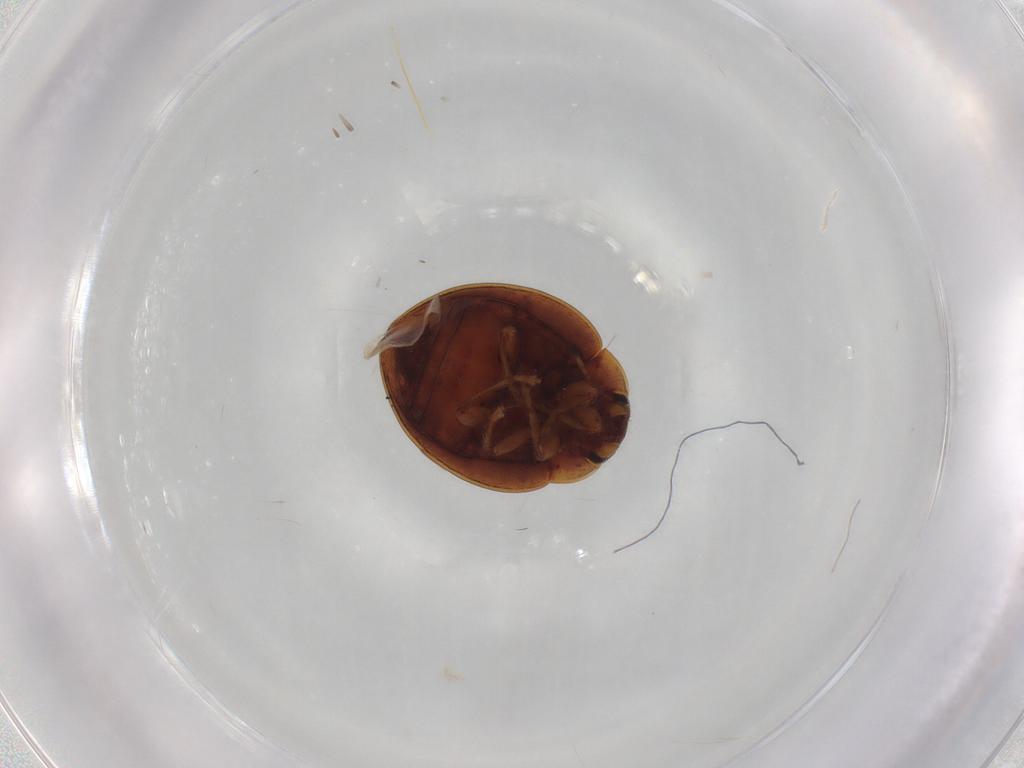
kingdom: Animalia
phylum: Arthropoda
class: Insecta
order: Coleoptera
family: Coccinellidae
